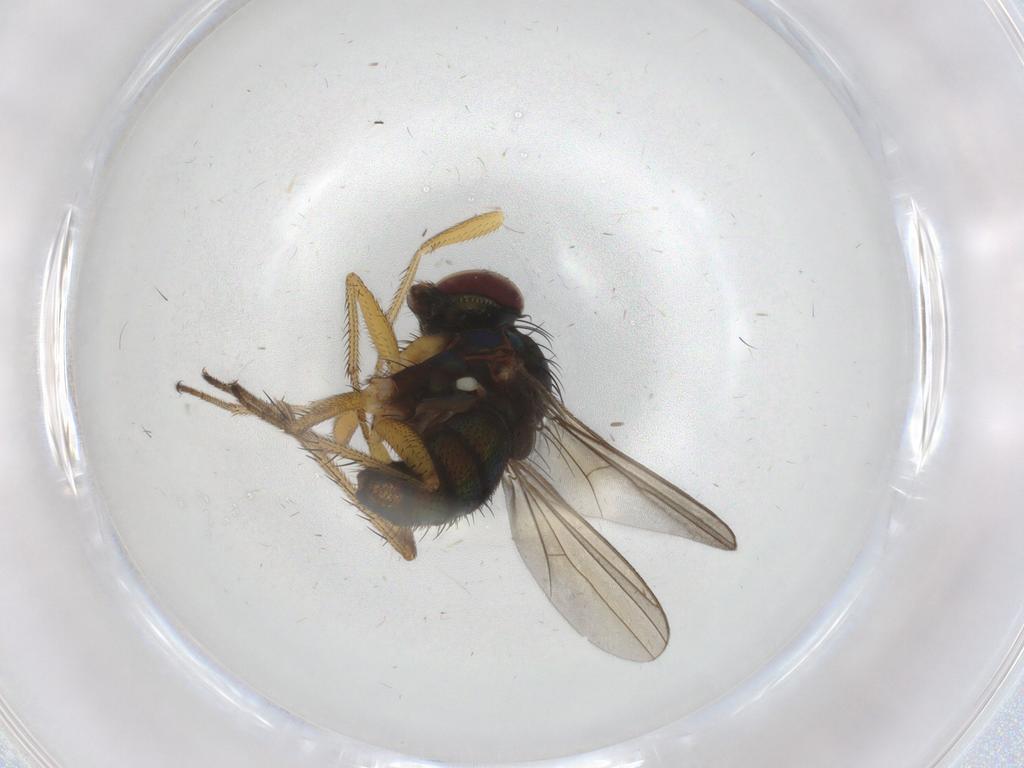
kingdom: Animalia
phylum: Arthropoda
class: Insecta
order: Diptera
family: Dolichopodidae
